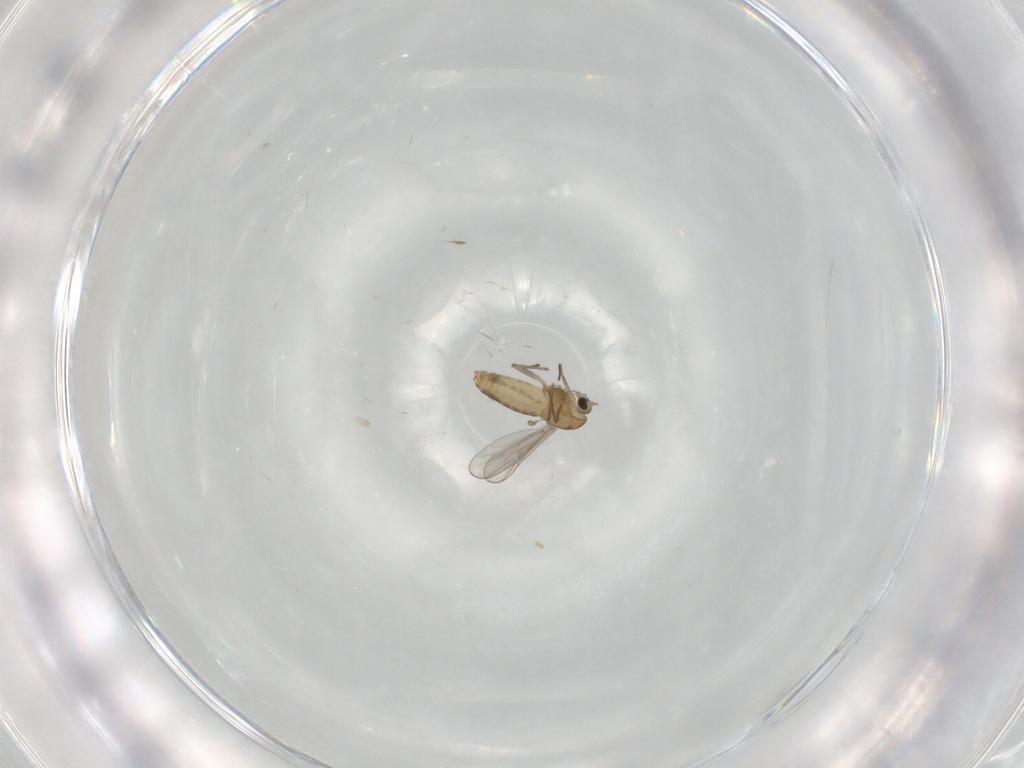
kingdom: Animalia
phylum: Arthropoda
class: Insecta
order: Diptera
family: Chironomidae
